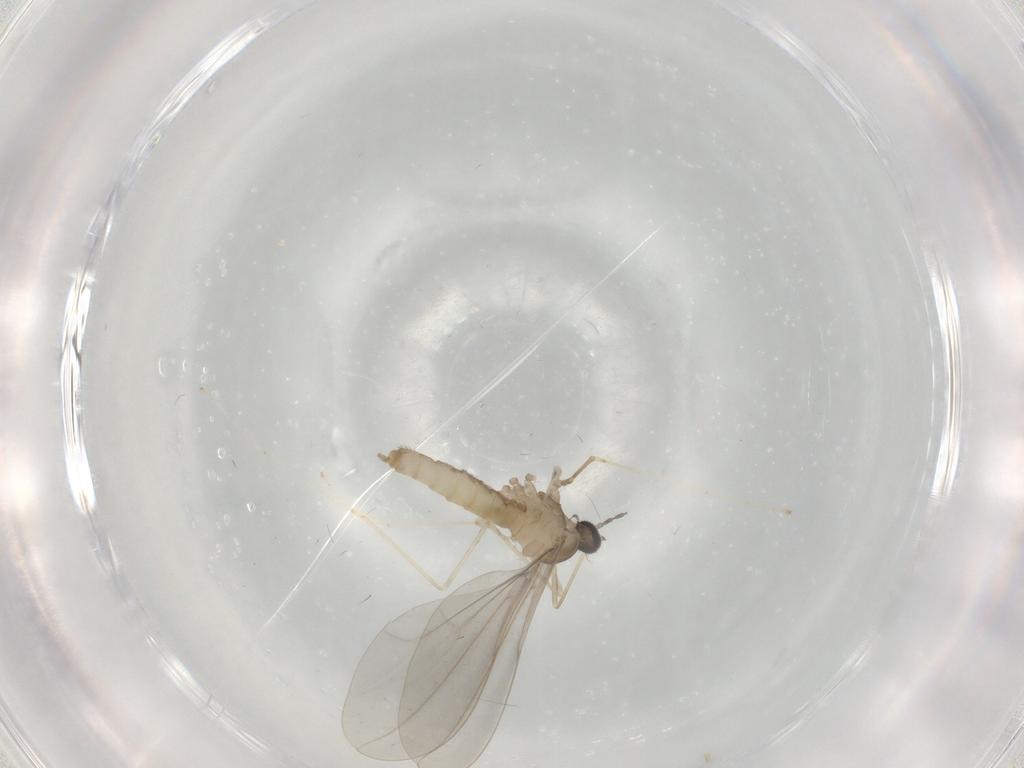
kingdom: Animalia
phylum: Arthropoda
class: Insecta
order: Diptera
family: Cecidomyiidae
